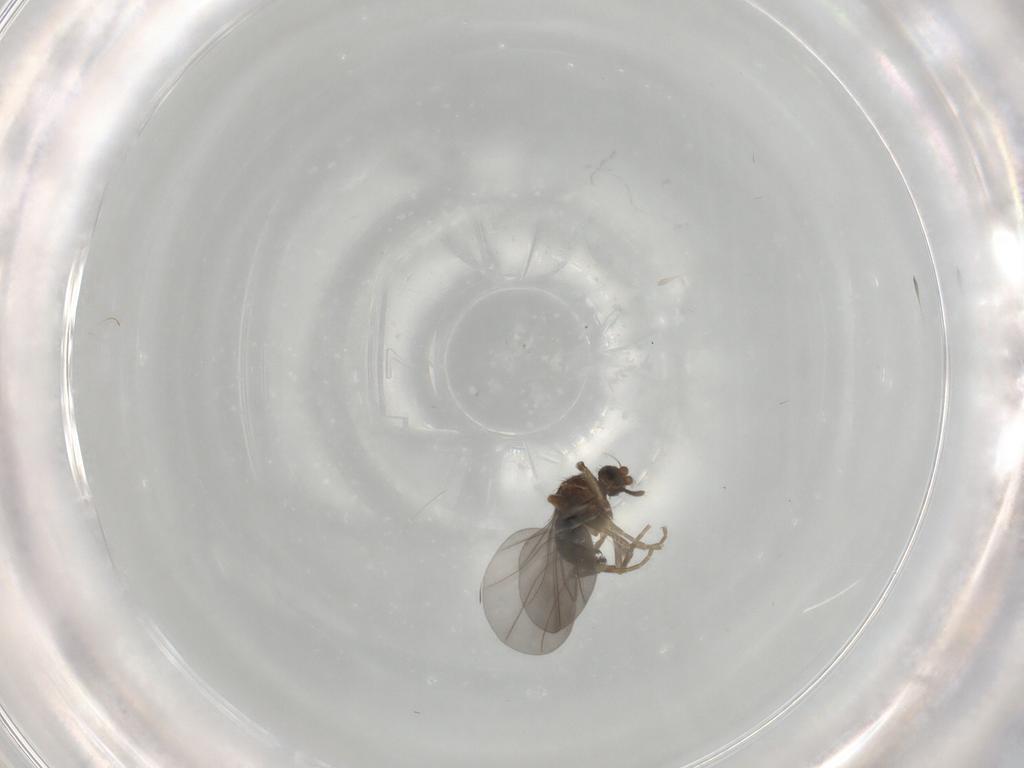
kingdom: Animalia
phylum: Arthropoda
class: Insecta
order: Diptera
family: Phoridae
